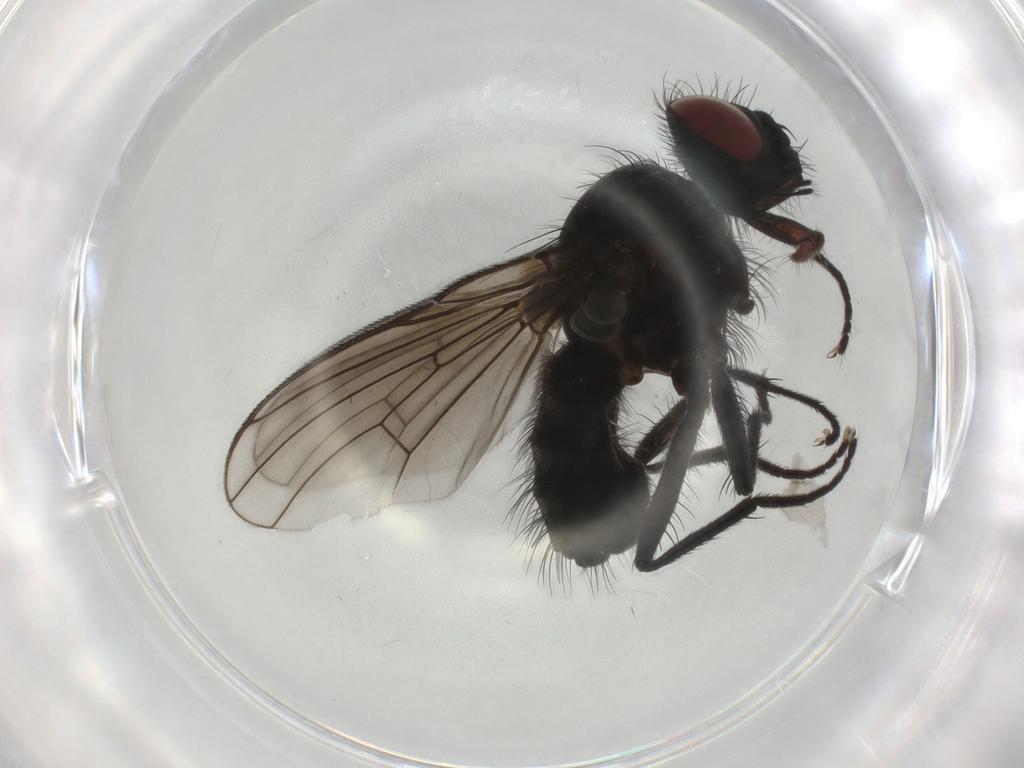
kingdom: Animalia
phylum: Arthropoda
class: Insecta
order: Diptera
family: Muscidae
